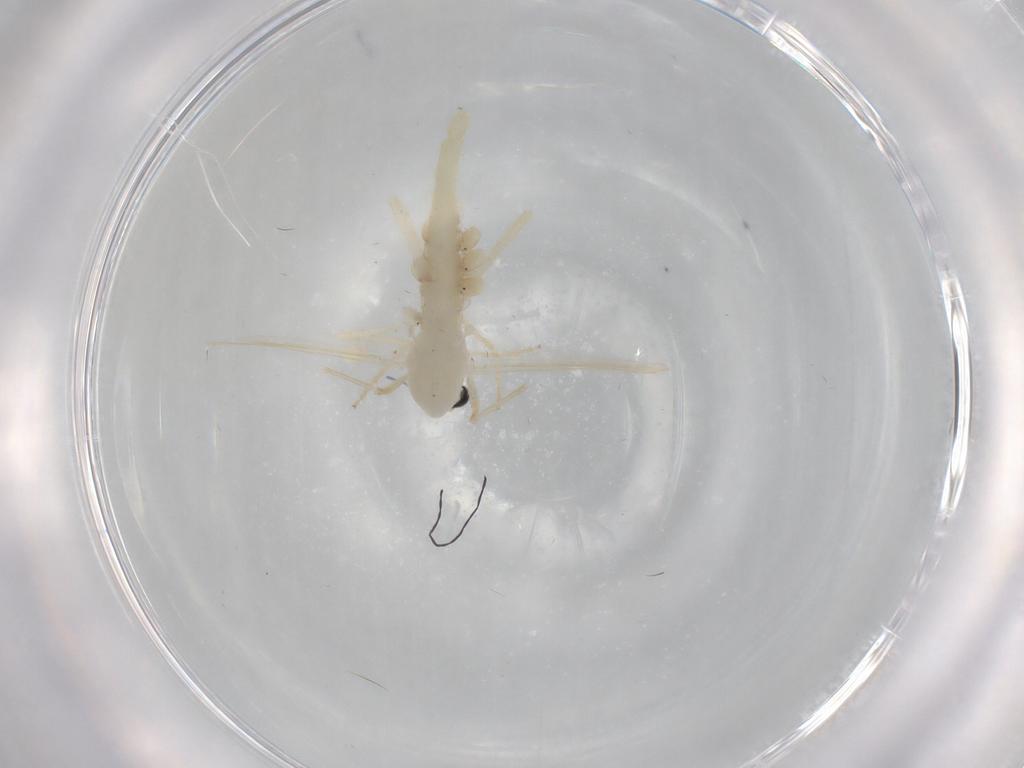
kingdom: Animalia
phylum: Arthropoda
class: Insecta
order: Diptera
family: Chironomidae
